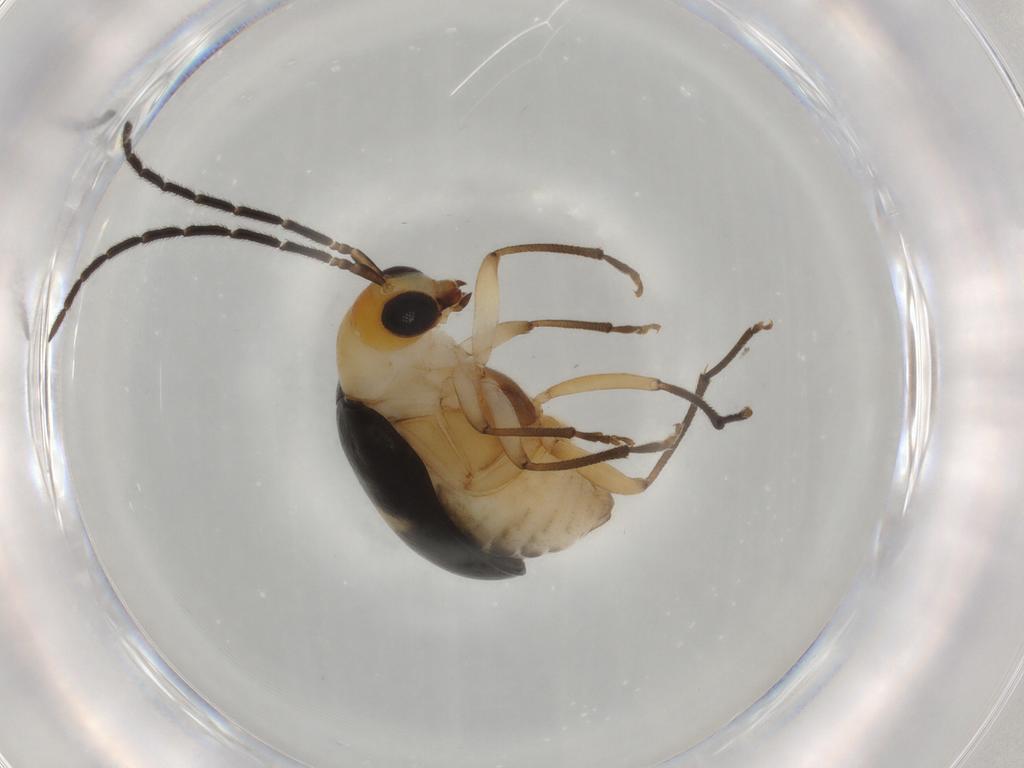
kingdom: Animalia
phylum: Arthropoda
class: Insecta
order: Coleoptera
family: Chrysomelidae
